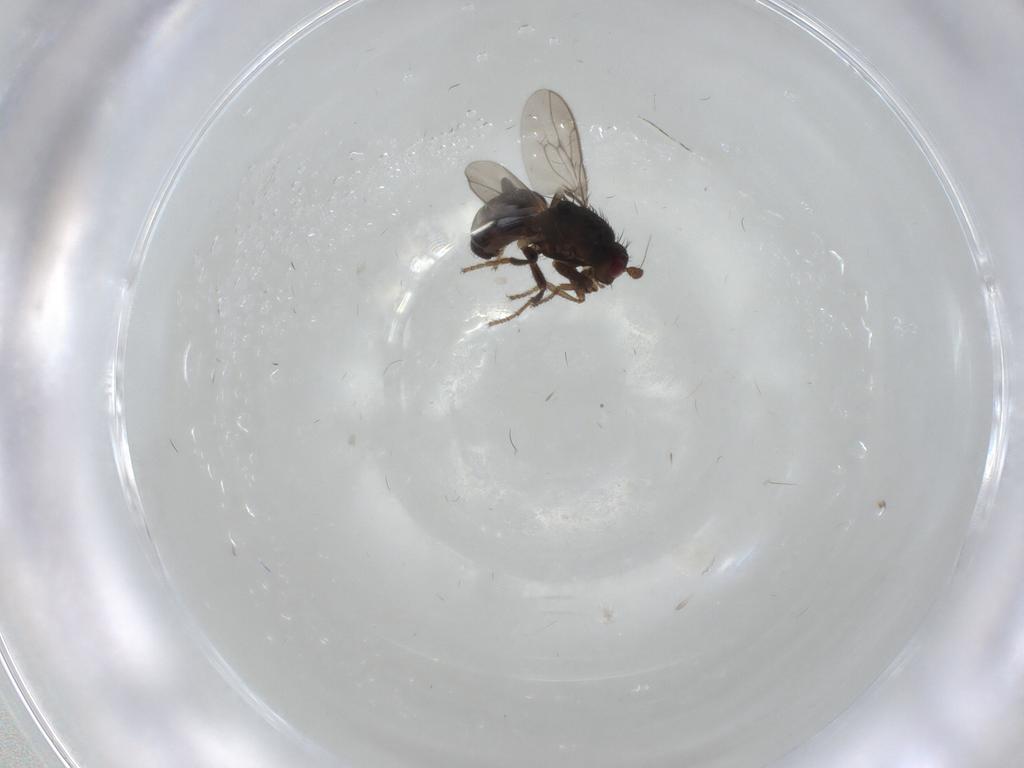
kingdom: Animalia
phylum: Arthropoda
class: Insecta
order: Diptera
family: Sphaeroceridae
